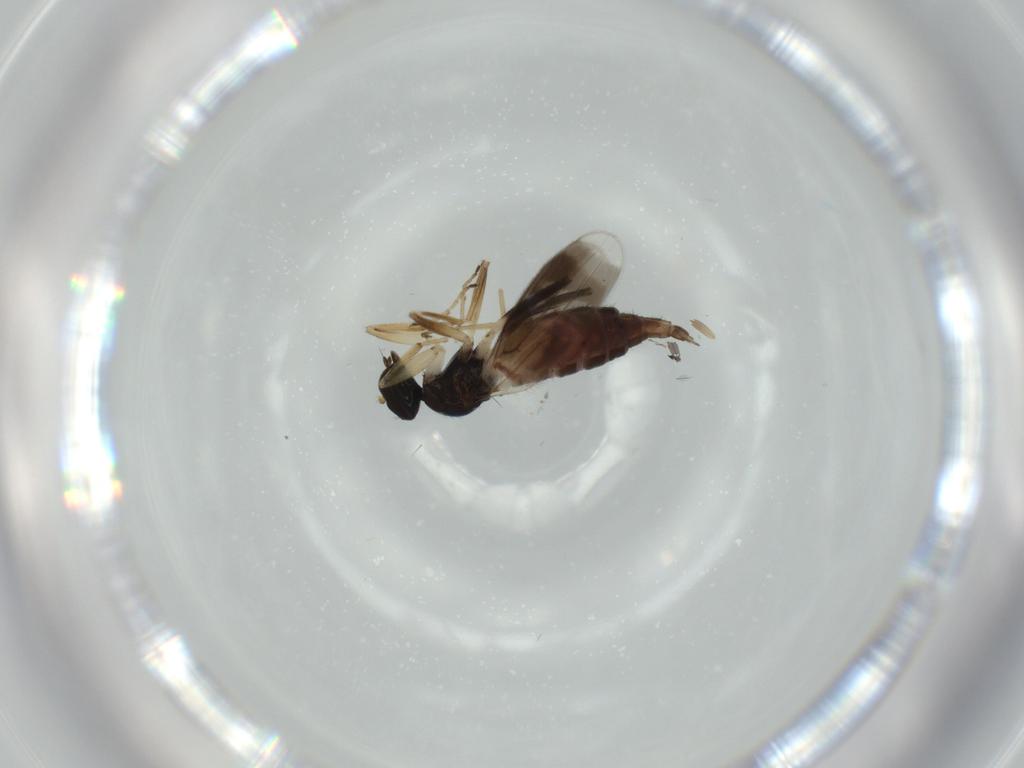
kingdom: Animalia
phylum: Arthropoda
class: Insecta
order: Diptera
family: Hybotidae
